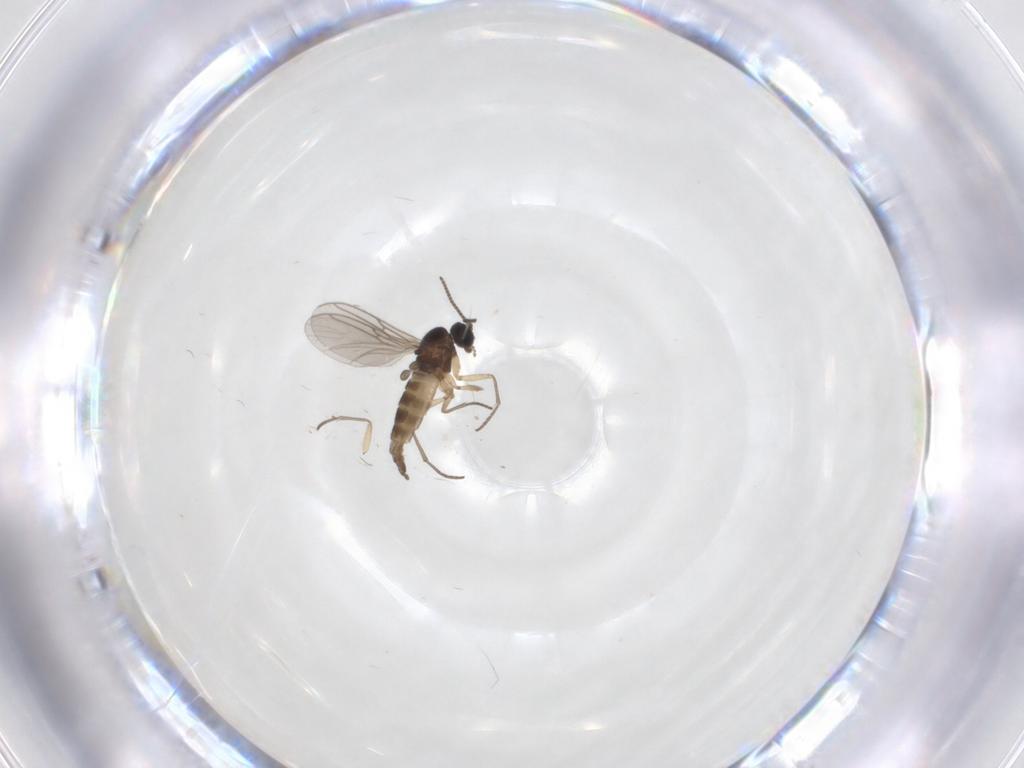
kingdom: Animalia
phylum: Arthropoda
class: Insecta
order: Diptera
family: Sciaridae
